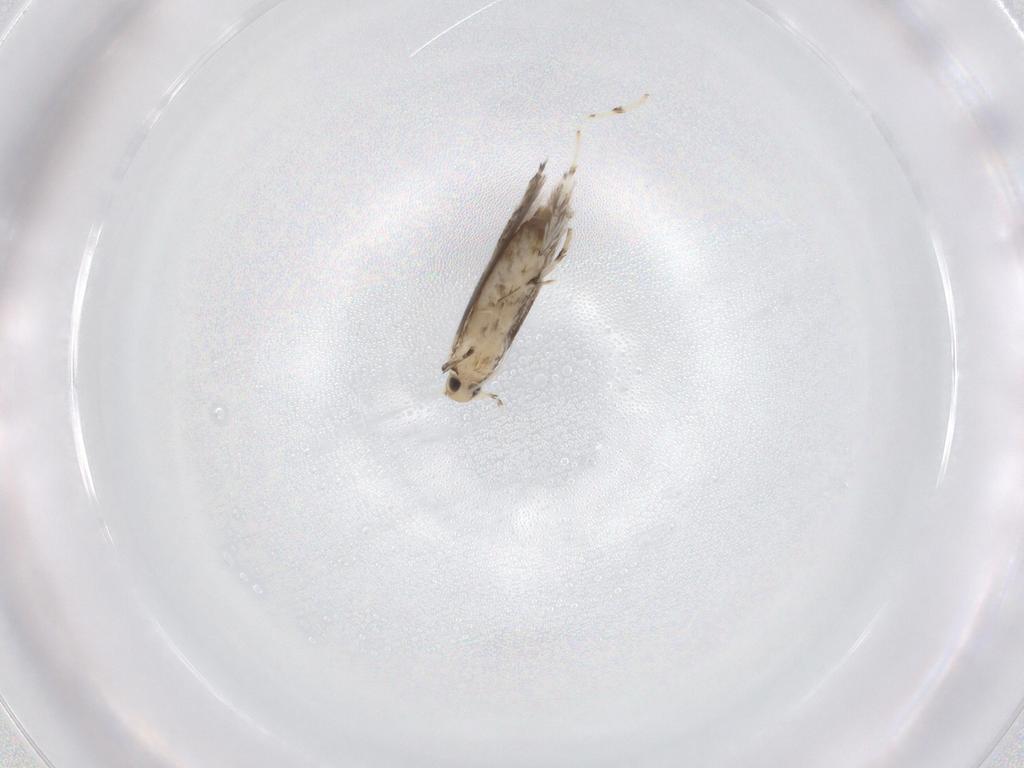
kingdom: Animalia
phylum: Arthropoda
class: Insecta
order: Lepidoptera
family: Gracillariidae
